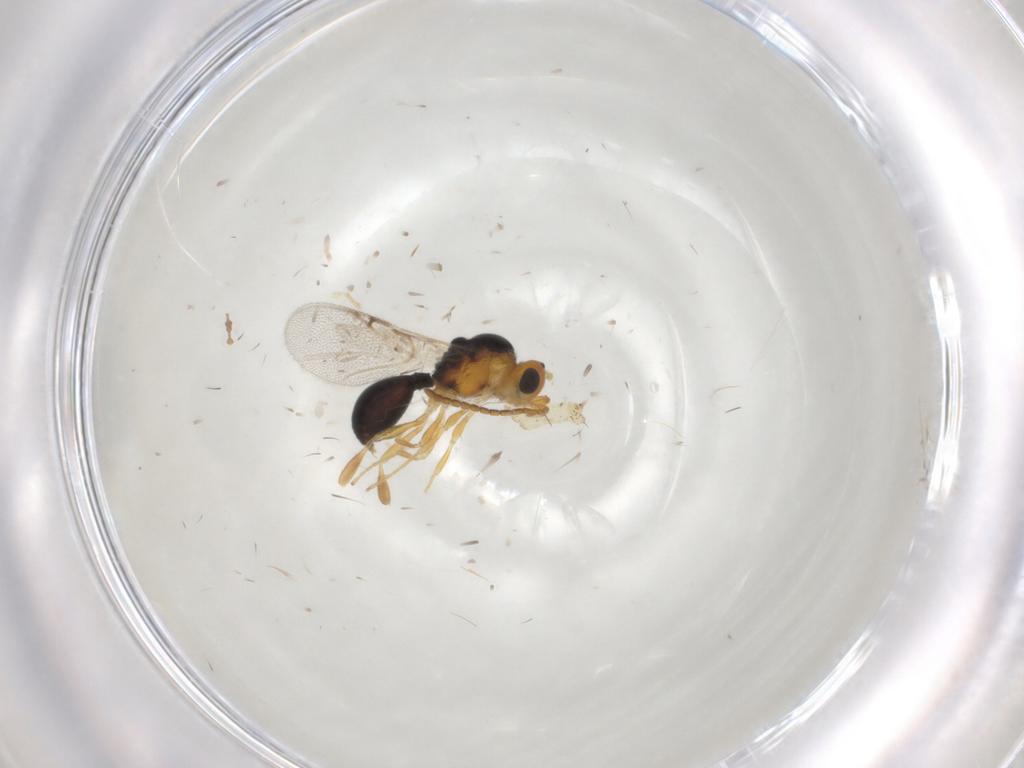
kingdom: Animalia
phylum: Arthropoda
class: Insecta
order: Hymenoptera
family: Diapriidae
